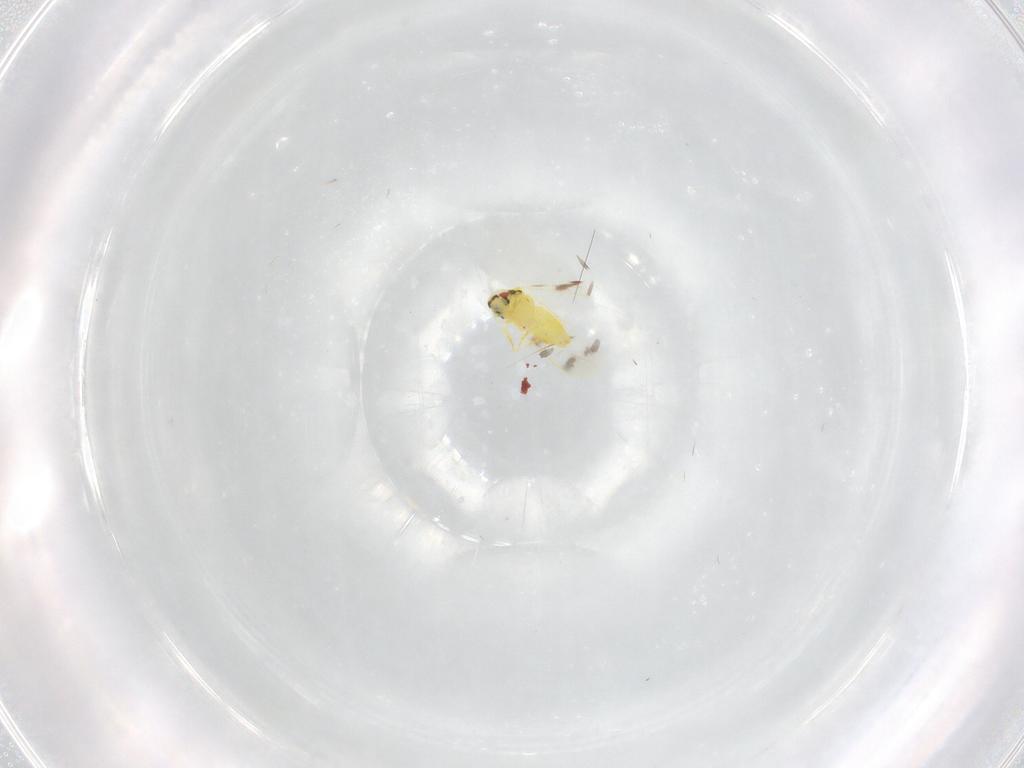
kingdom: Animalia
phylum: Arthropoda
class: Insecta
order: Hemiptera
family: Aleyrodidae
